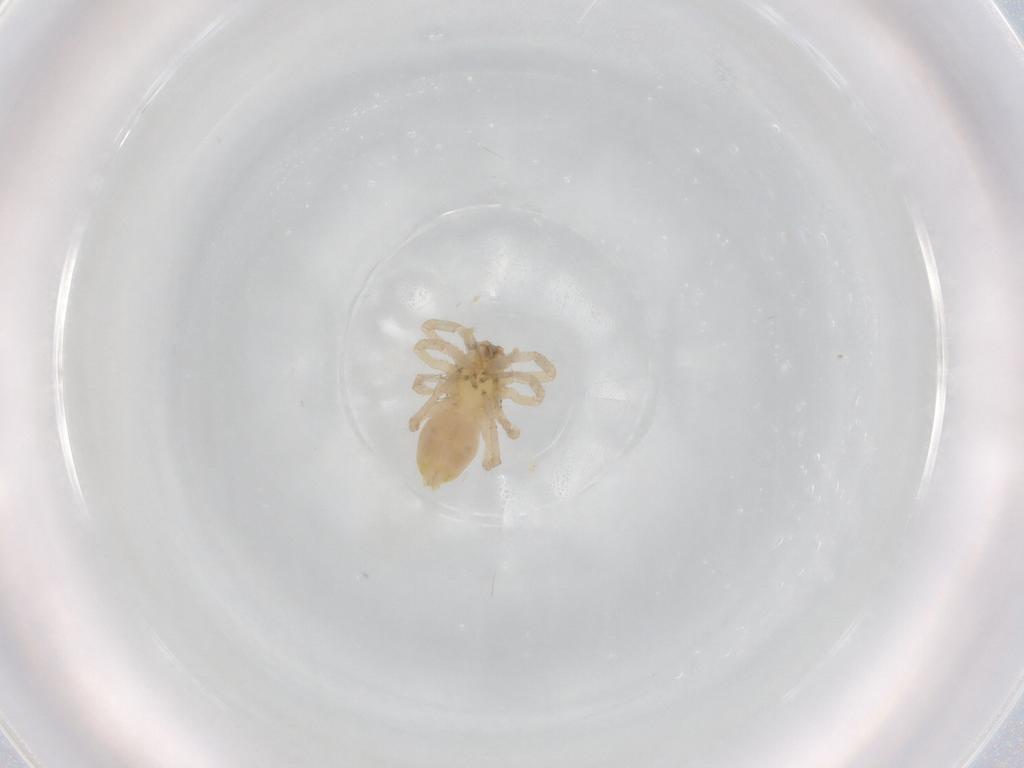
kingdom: Animalia
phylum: Arthropoda
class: Arachnida
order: Araneae
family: Anyphaenidae
